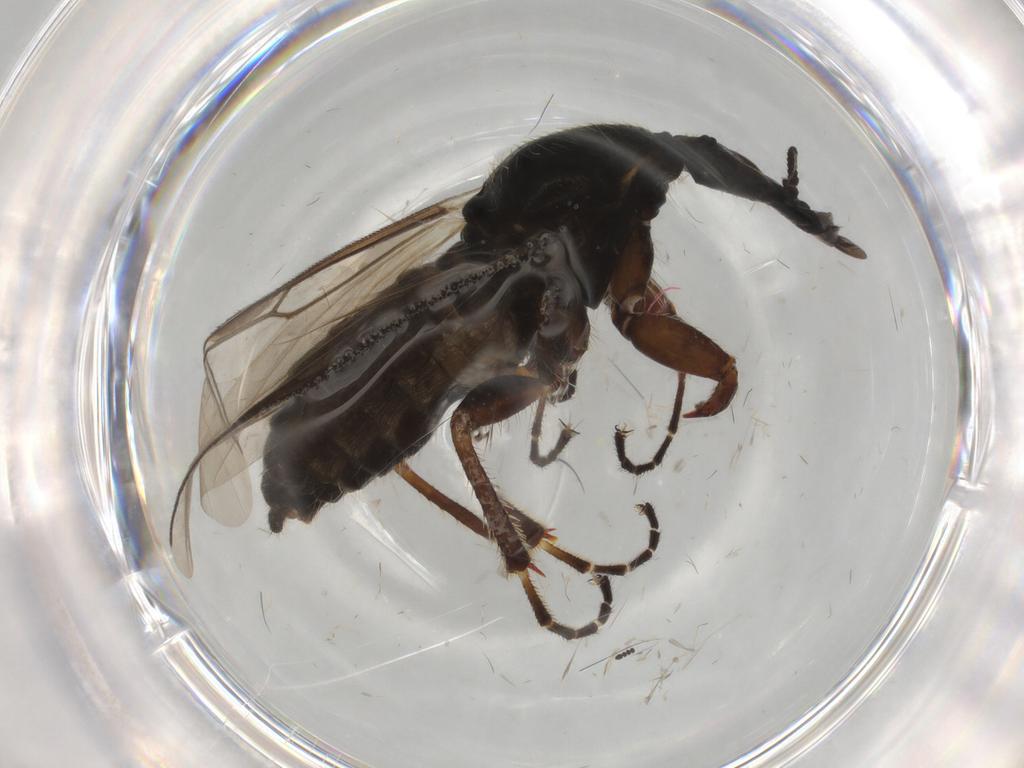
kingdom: Animalia
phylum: Arthropoda
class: Insecta
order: Diptera
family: Bibionidae
